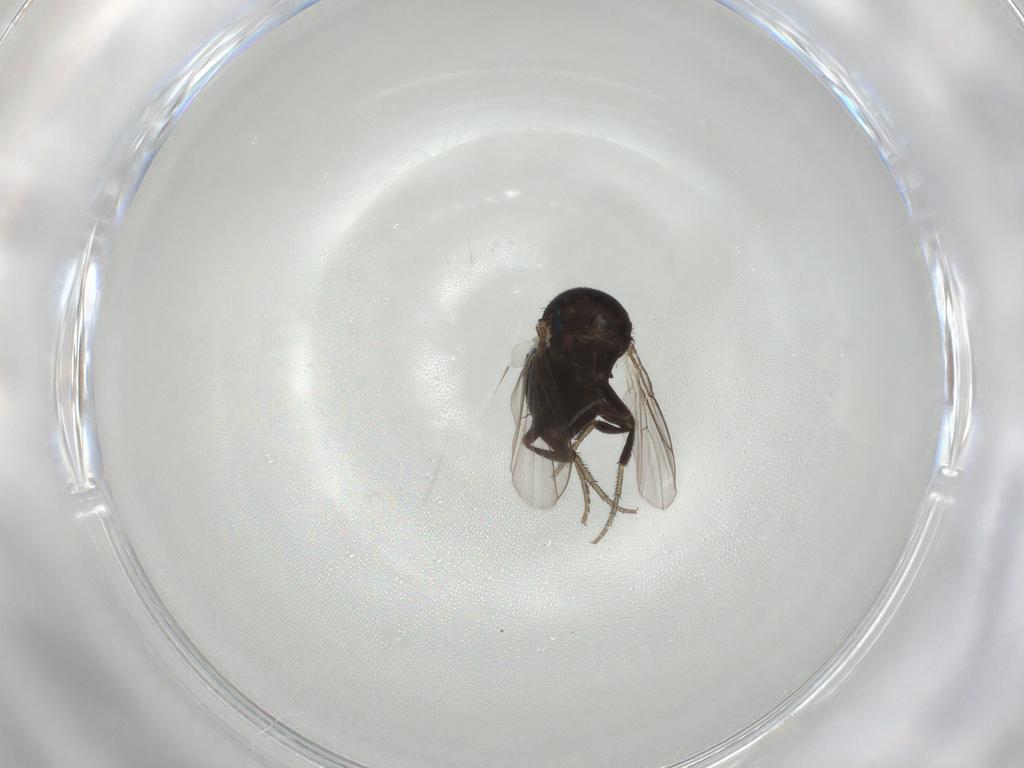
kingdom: Animalia
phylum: Arthropoda
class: Insecta
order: Diptera
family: Cryptochetidae
